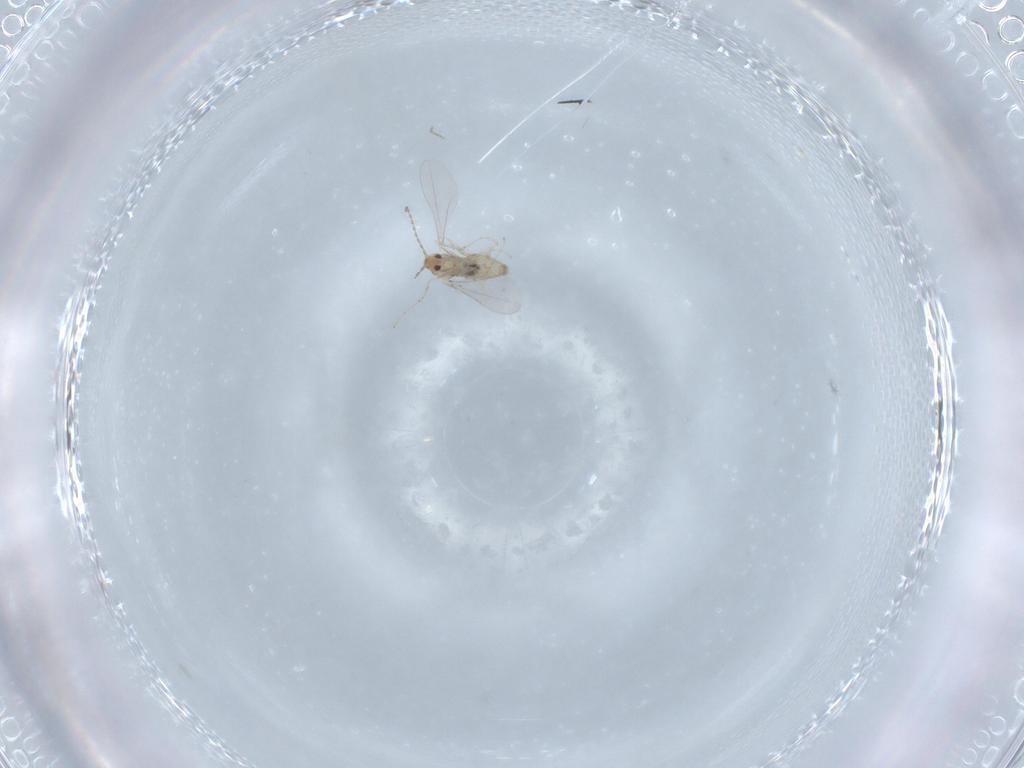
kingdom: Animalia
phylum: Arthropoda
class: Insecta
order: Diptera
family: Cecidomyiidae
